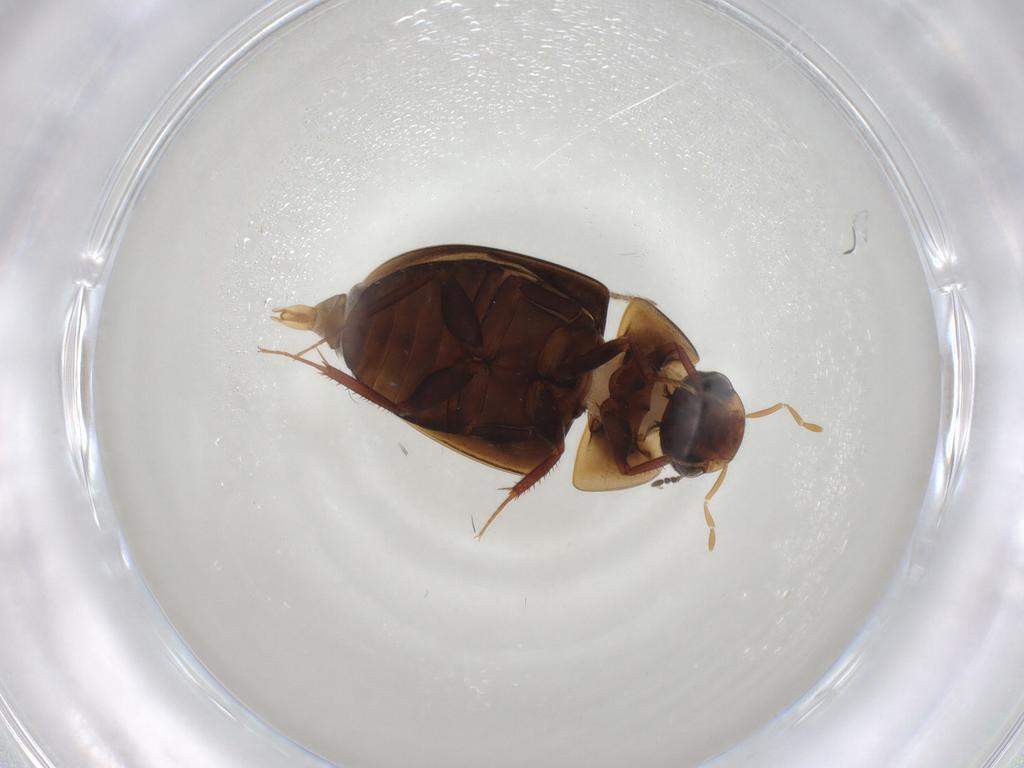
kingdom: Animalia
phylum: Arthropoda
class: Insecta
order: Coleoptera
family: Hydrophilidae
